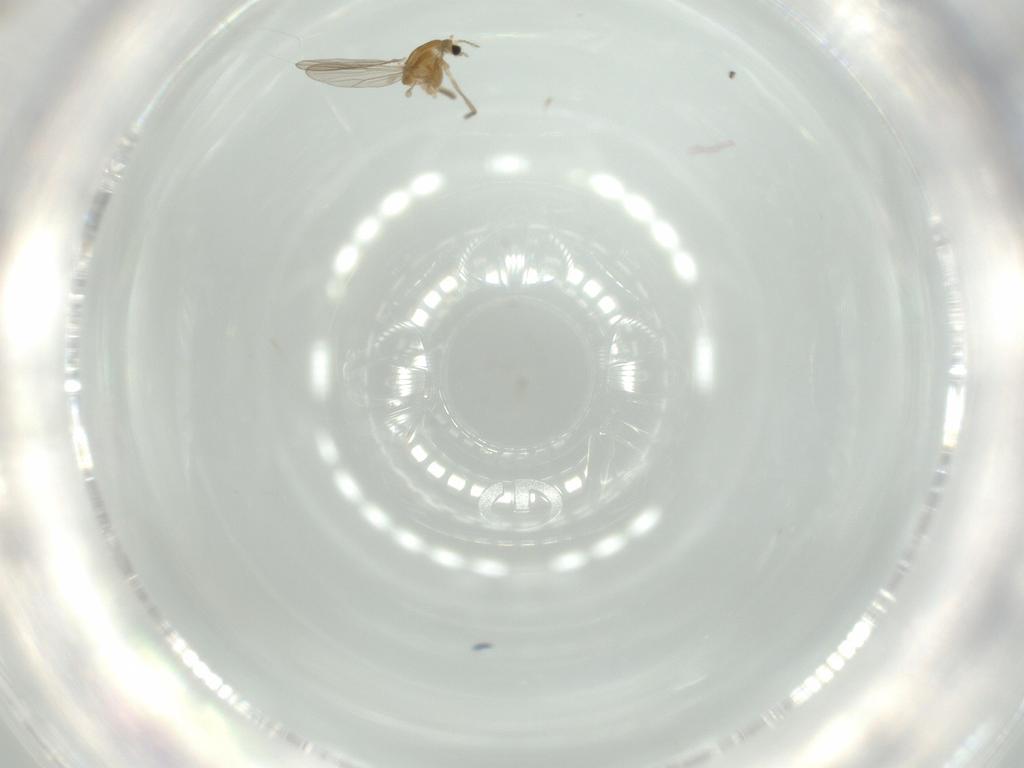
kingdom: Animalia
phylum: Arthropoda
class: Insecta
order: Diptera
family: Chironomidae
